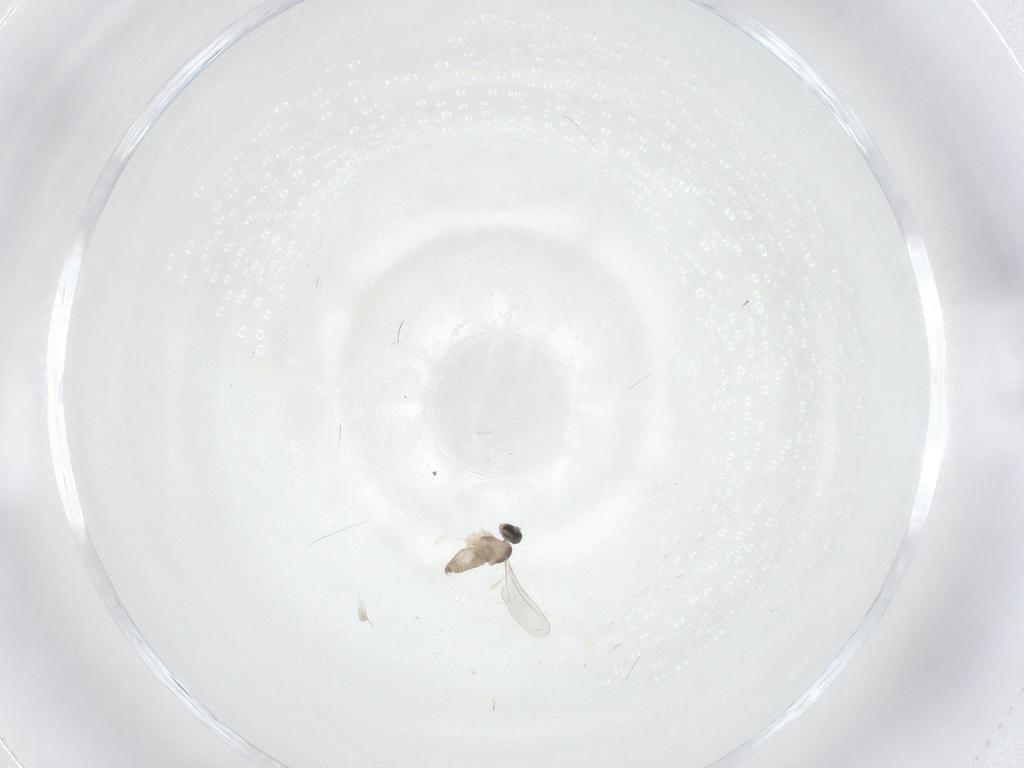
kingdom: Animalia
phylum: Arthropoda
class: Insecta
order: Diptera
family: Cecidomyiidae
